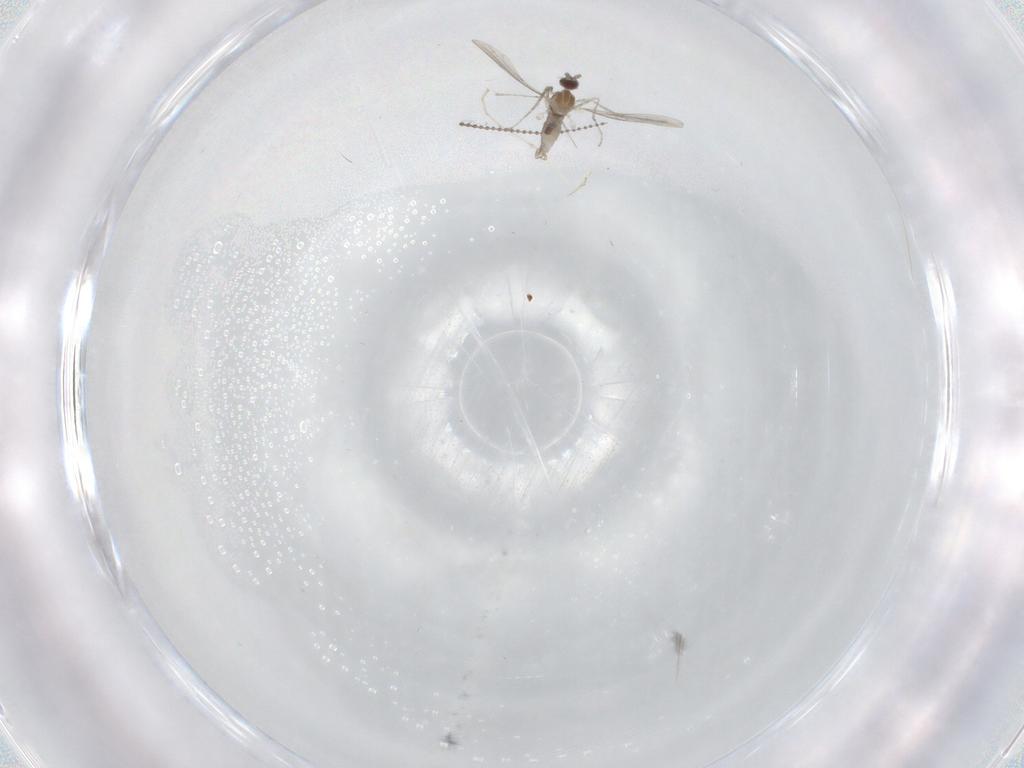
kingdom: Animalia
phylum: Arthropoda
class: Insecta
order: Diptera
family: Cecidomyiidae
